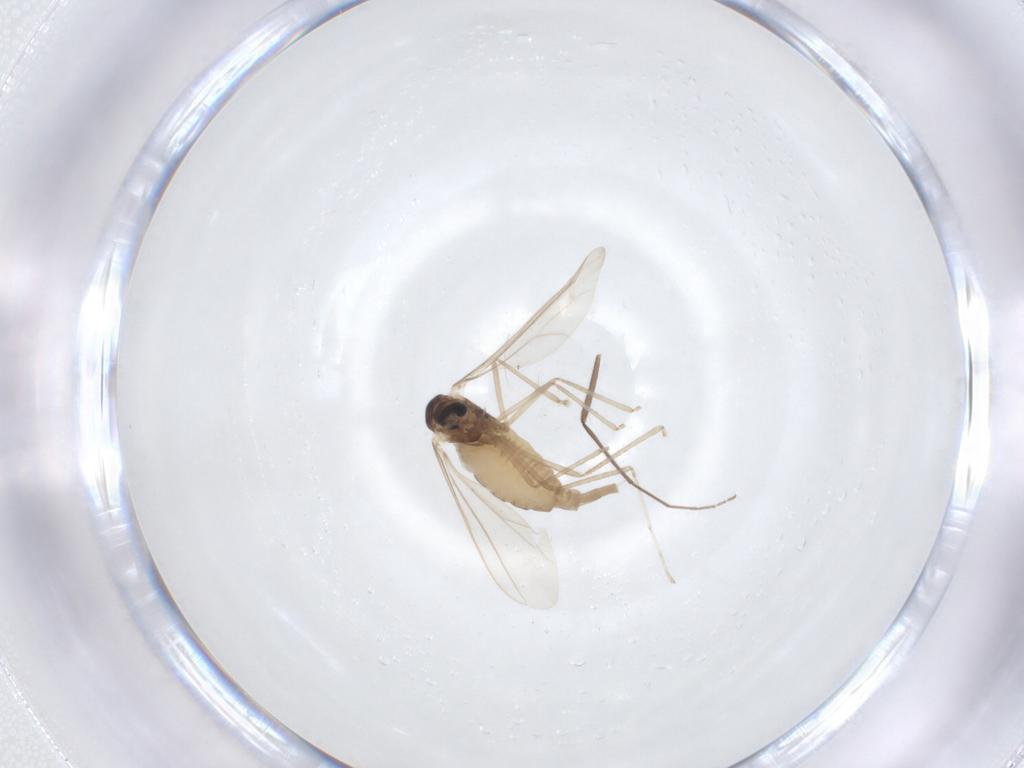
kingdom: Animalia
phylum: Arthropoda
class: Insecta
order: Diptera
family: Cecidomyiidae
